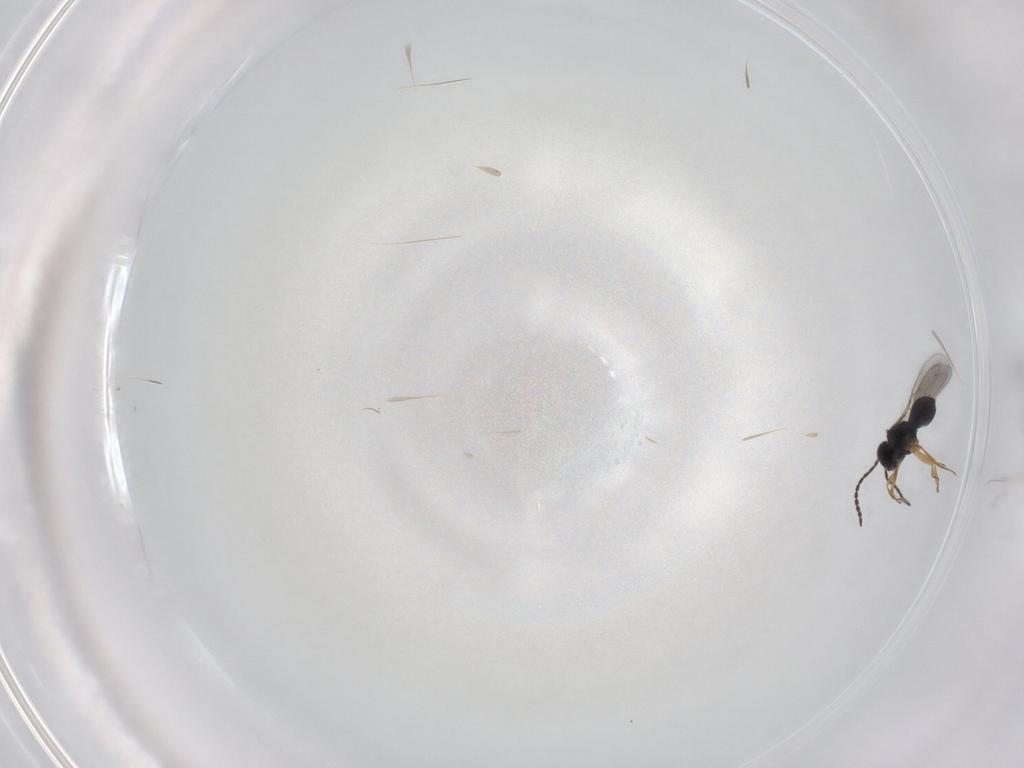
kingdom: Animalia
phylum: Arthropoda
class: Insecta
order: Hymenoptera
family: Scelionidae
